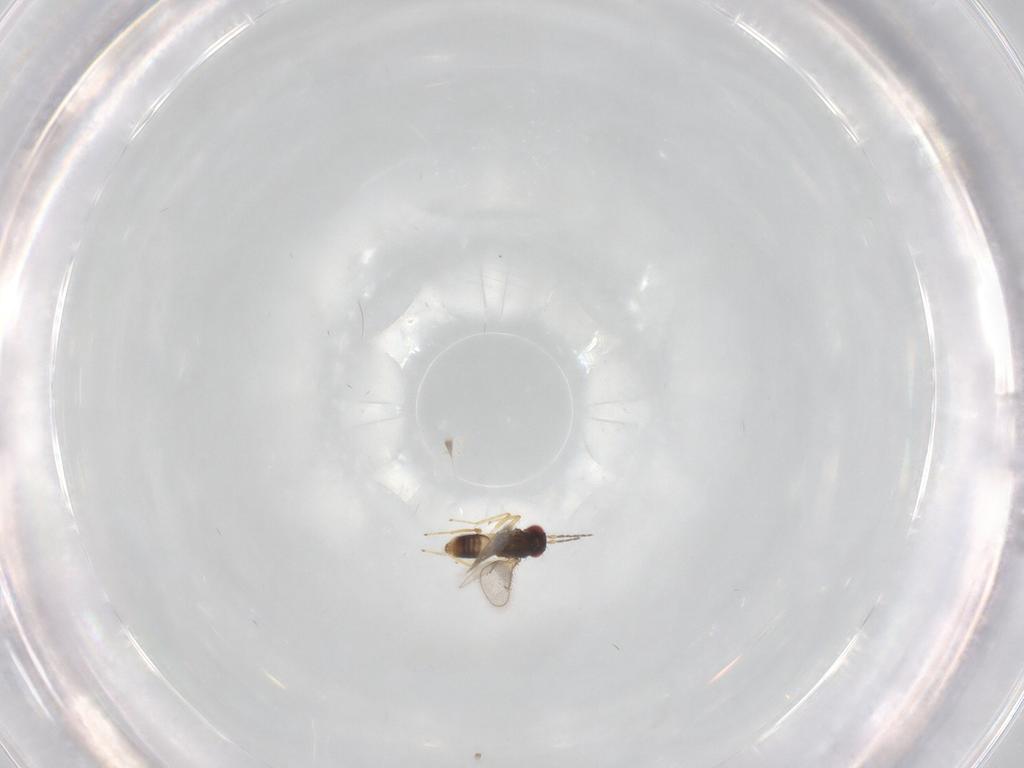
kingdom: Animalia
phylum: Arthropoda
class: Insecta
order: Hymenoptera
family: Eulophidae
